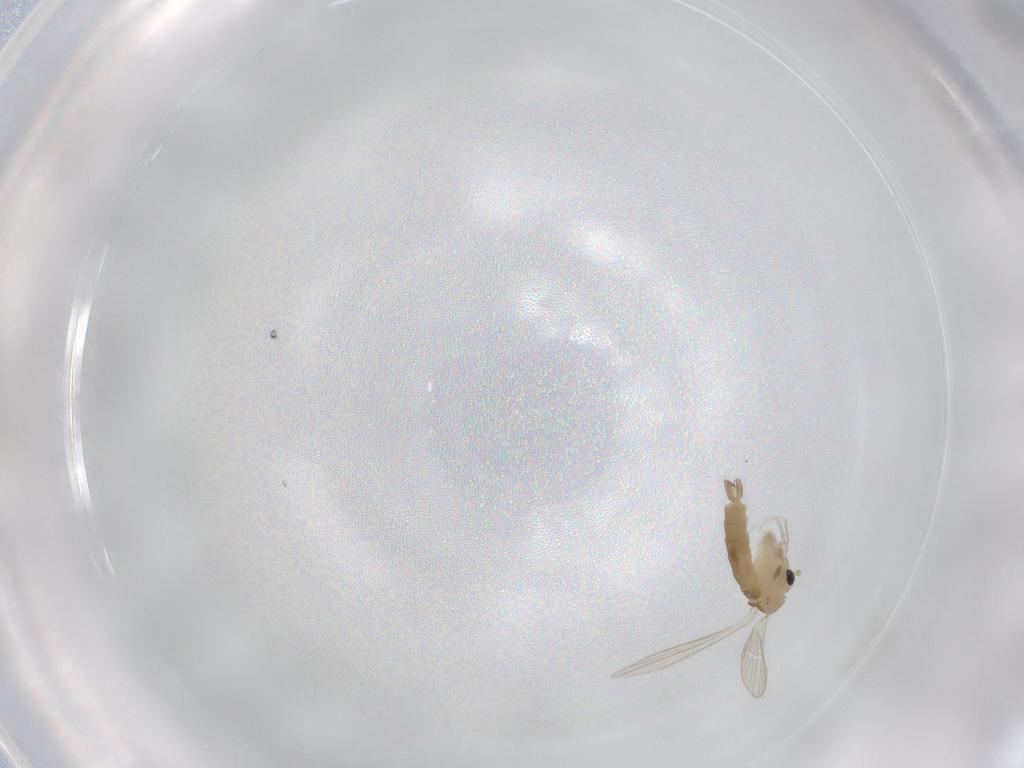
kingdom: Animalia
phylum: Arthropoda
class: Insecta
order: Diptera
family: Psychodidae
